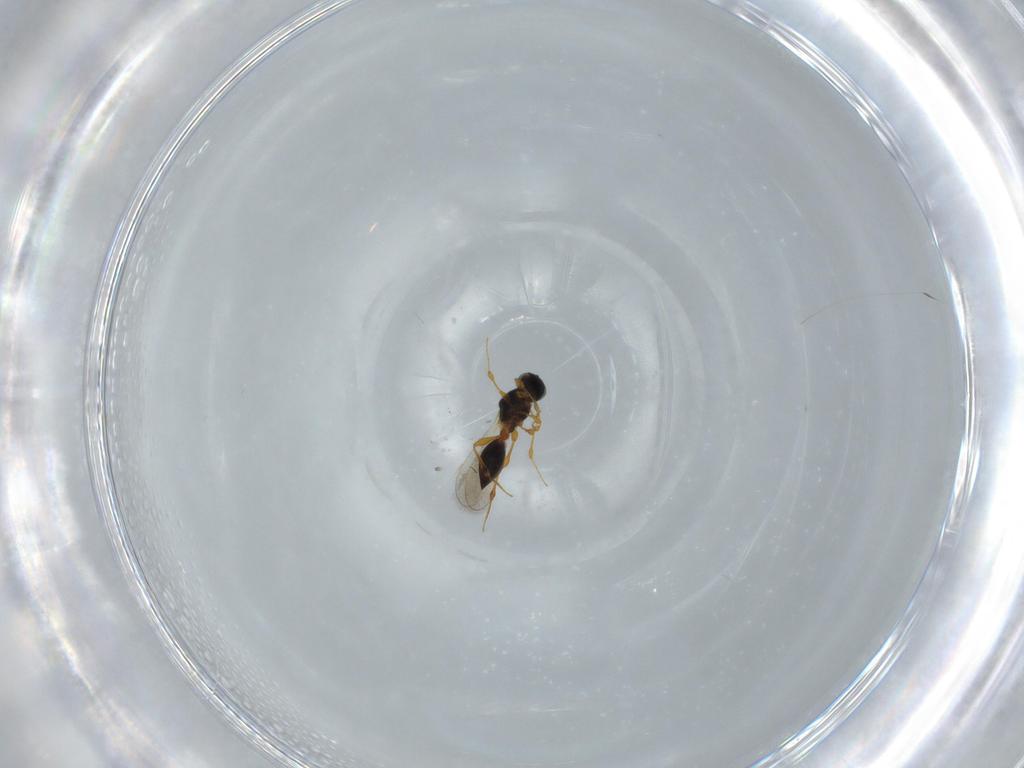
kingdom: Animalia
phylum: Arthropoda
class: Insecta
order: Hymenoptera
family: Platygastridae
